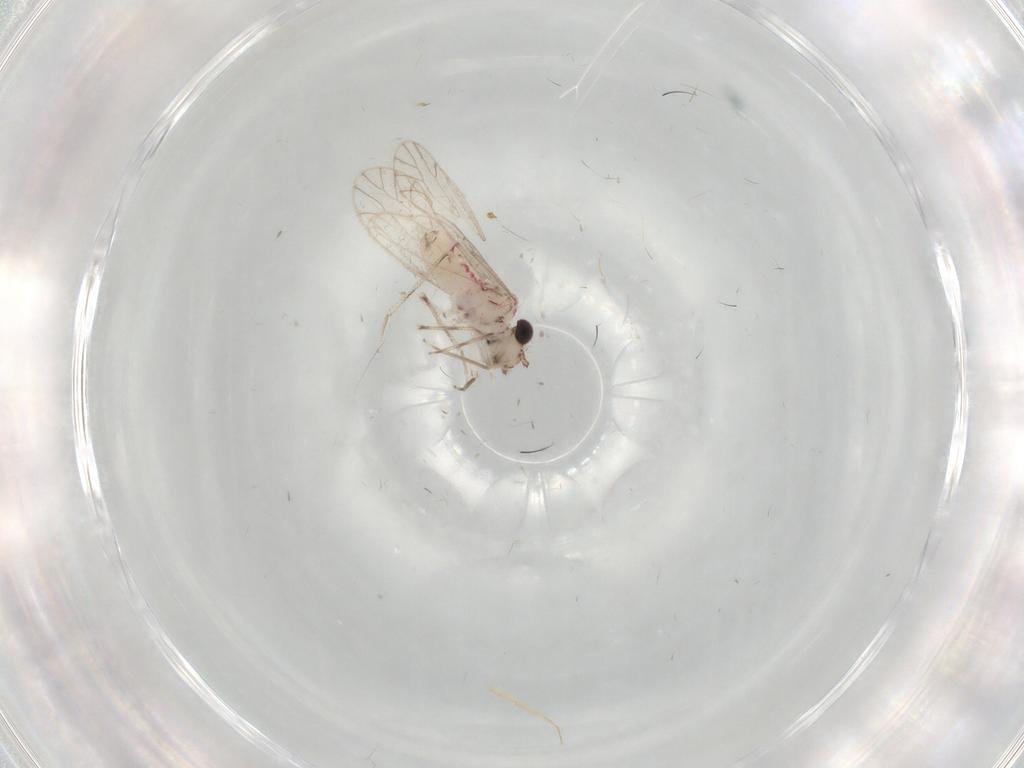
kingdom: Animalia
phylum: Arthropoda
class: Insecta
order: Psocodea
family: Caeciliusidae
